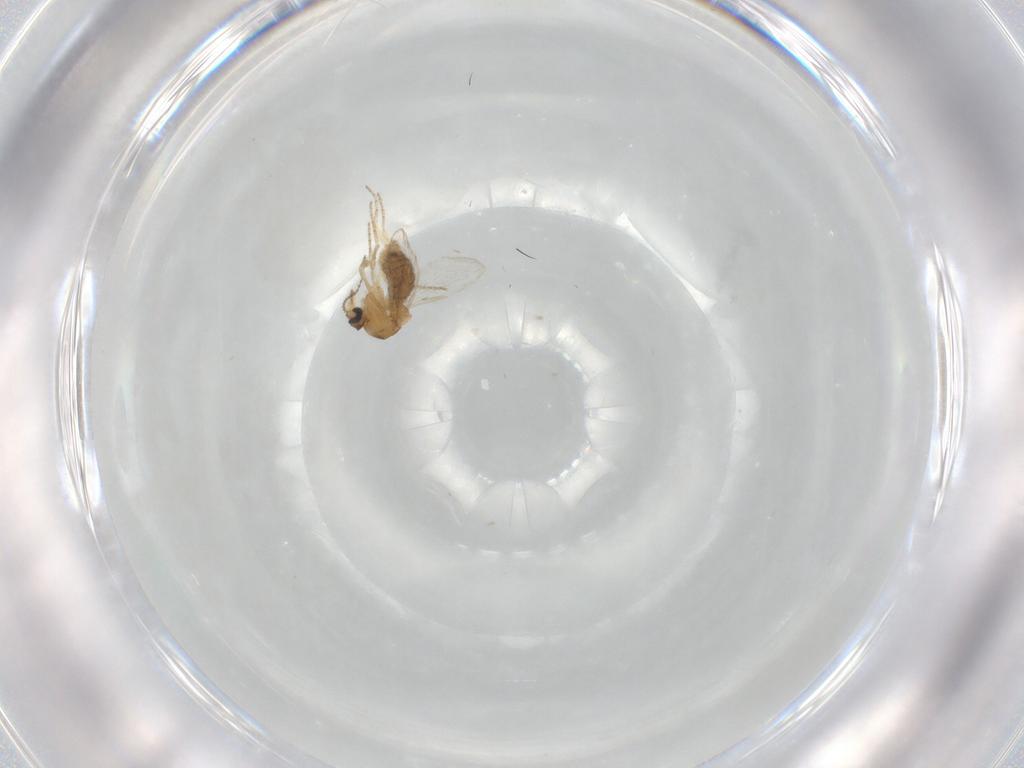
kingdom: Animalia
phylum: Arthropoda
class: Insecta
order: Diptera
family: Ceratopogonidae
